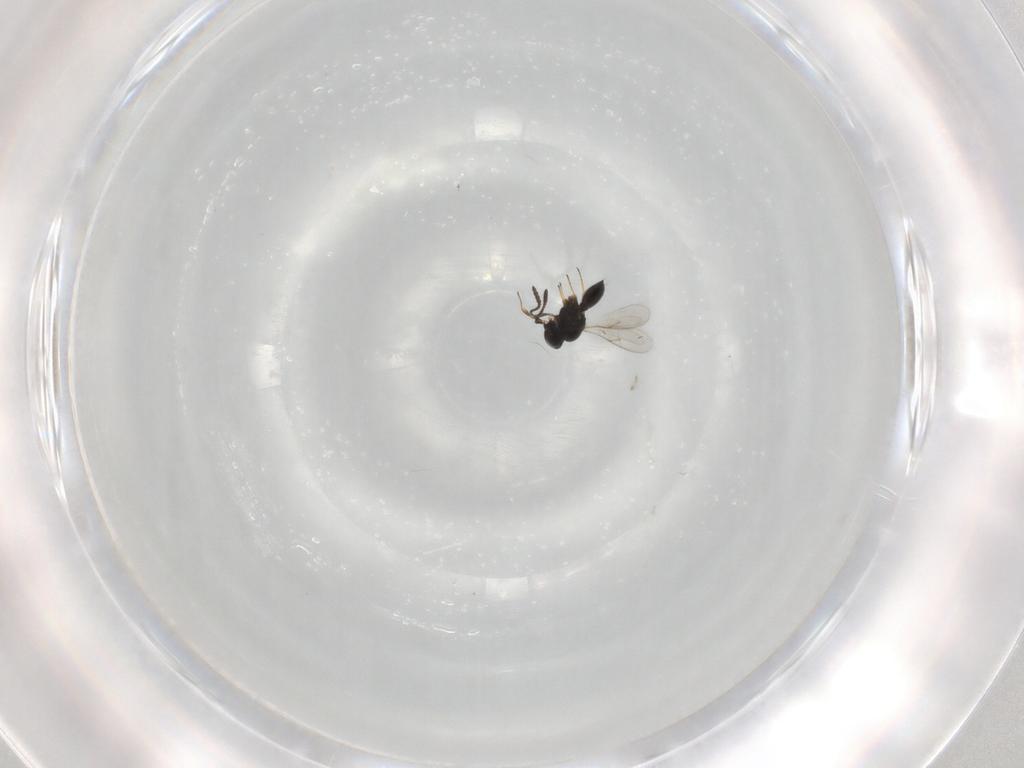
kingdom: Animalia
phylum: Arthropoda
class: Insecta
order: Hymenoptera
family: Scelionidae
